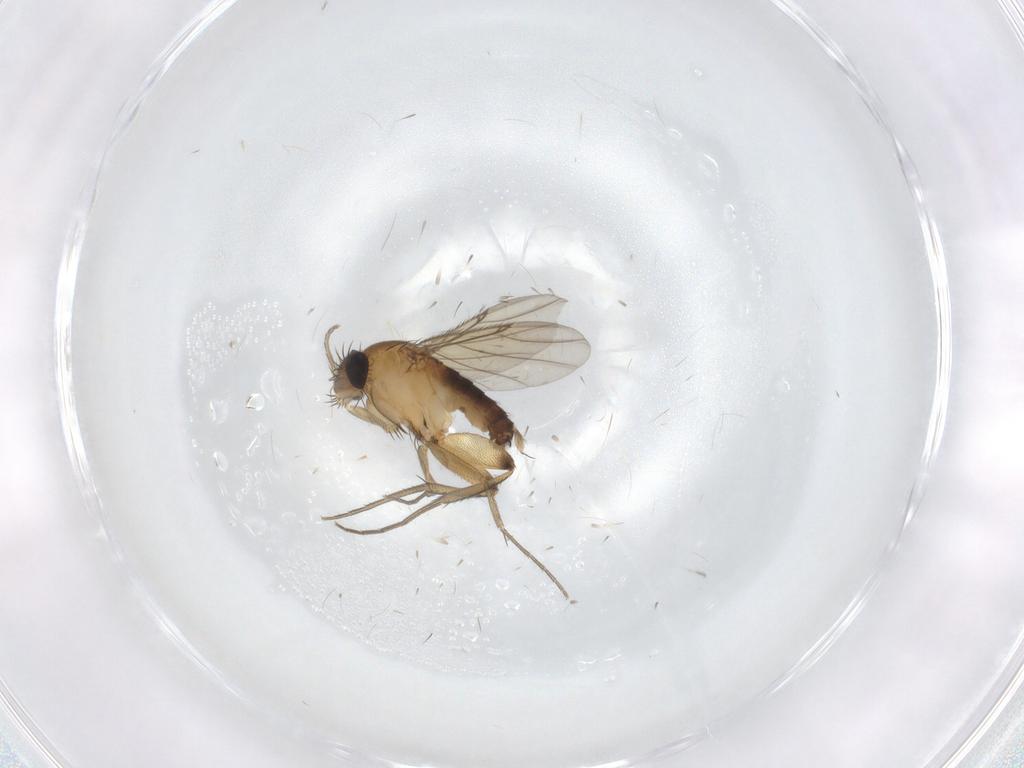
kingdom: Animalia
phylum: Arthropoda
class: Insecta
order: Diptera
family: Phoridae
